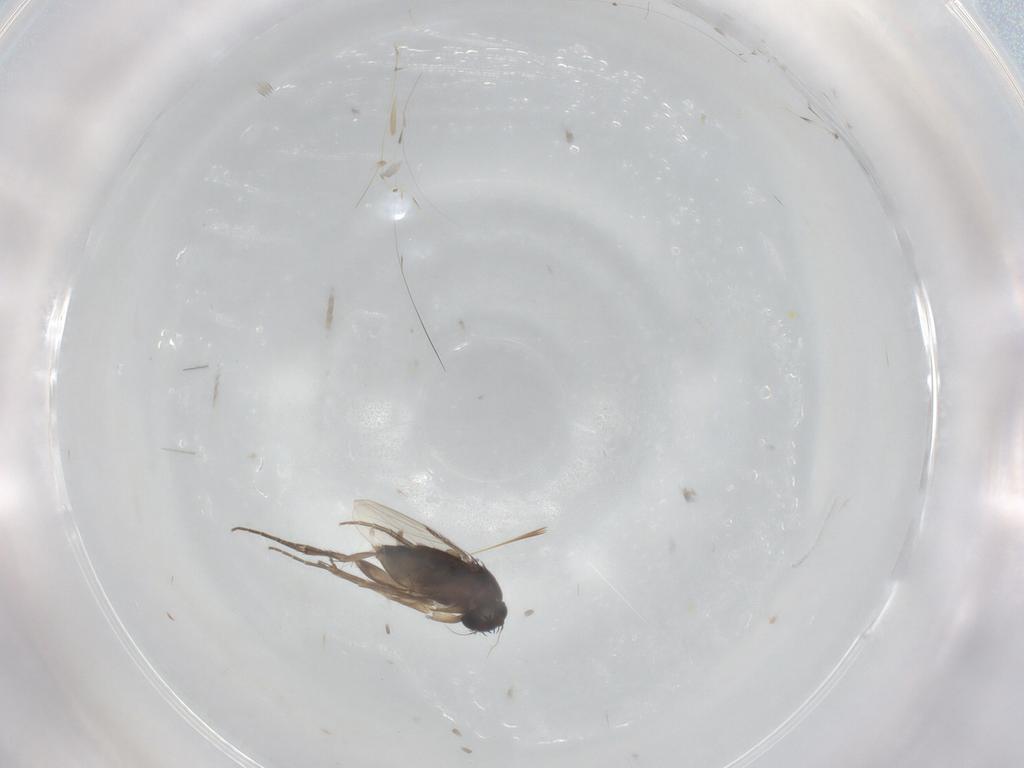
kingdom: Animalia
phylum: Arthropoda
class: Insecta
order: Diptera
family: Phoridae
